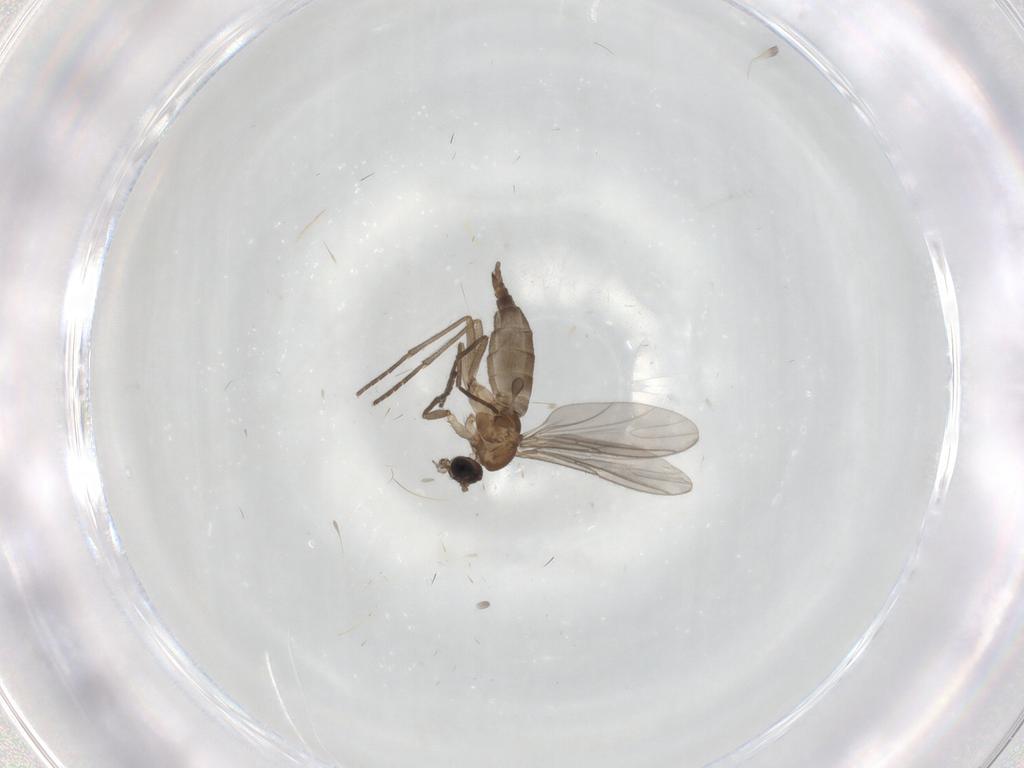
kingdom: Animalia
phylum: Arthropoda
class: Insecta
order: Diptera
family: Sciaridae
